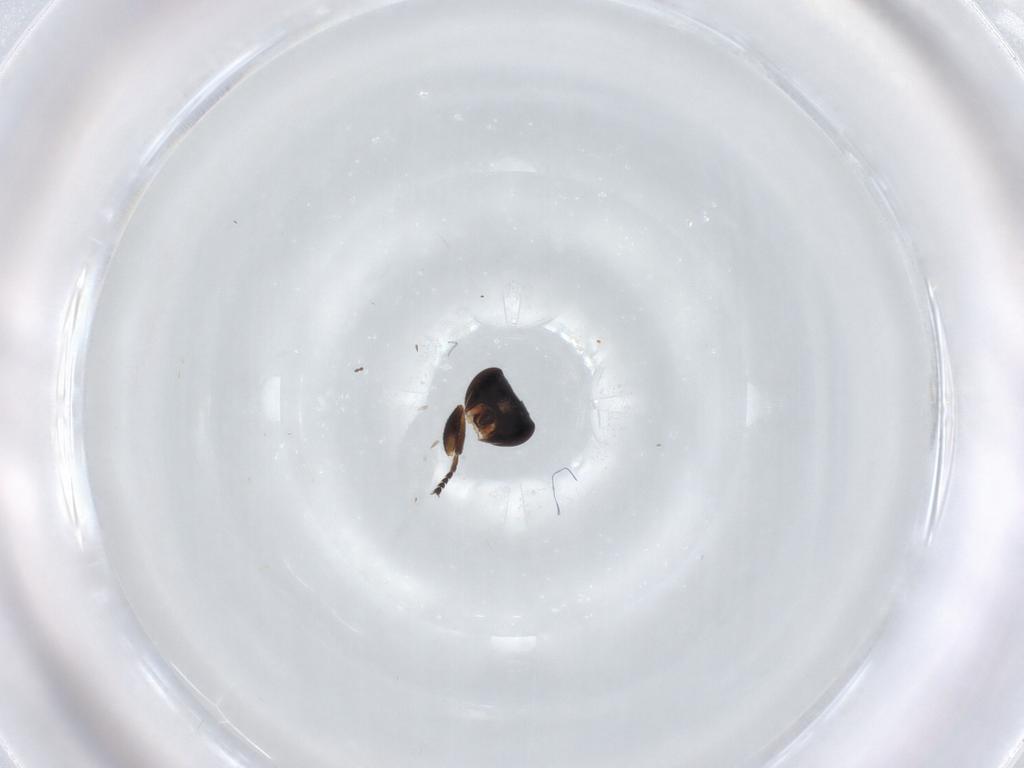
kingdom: Animalia
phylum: Arthropoda
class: Insecta
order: Diptera
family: Chloropidae
